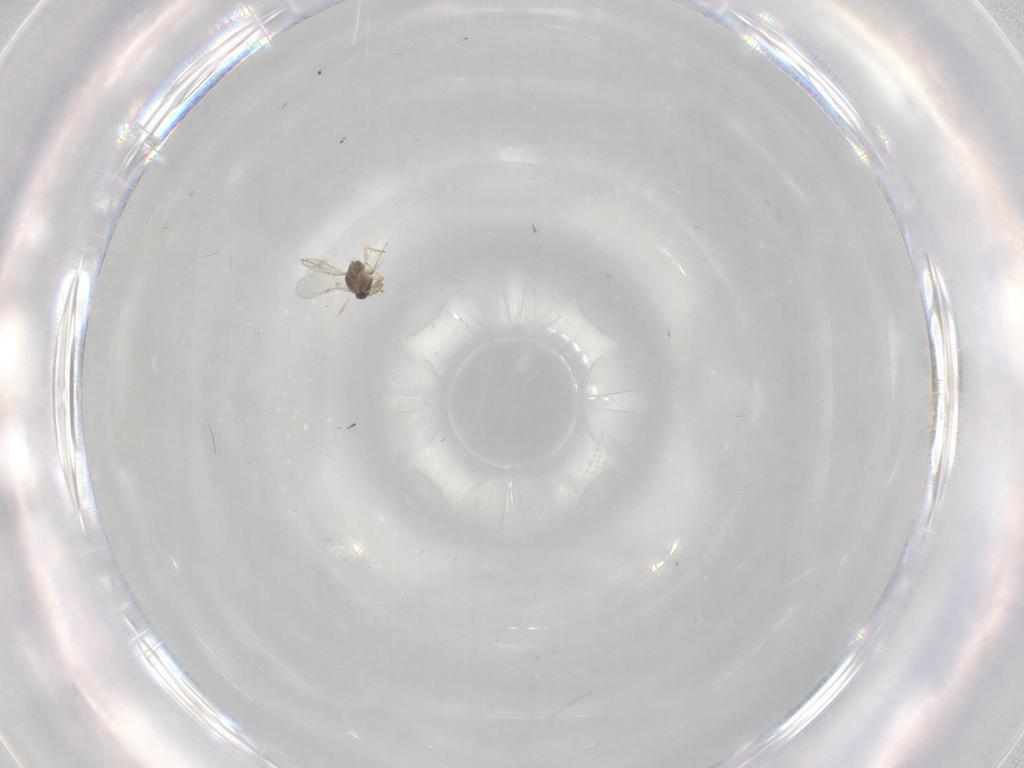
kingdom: Animalia
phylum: Arthropoda
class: Insecta
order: Hymenoptera
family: Encyrtidae
